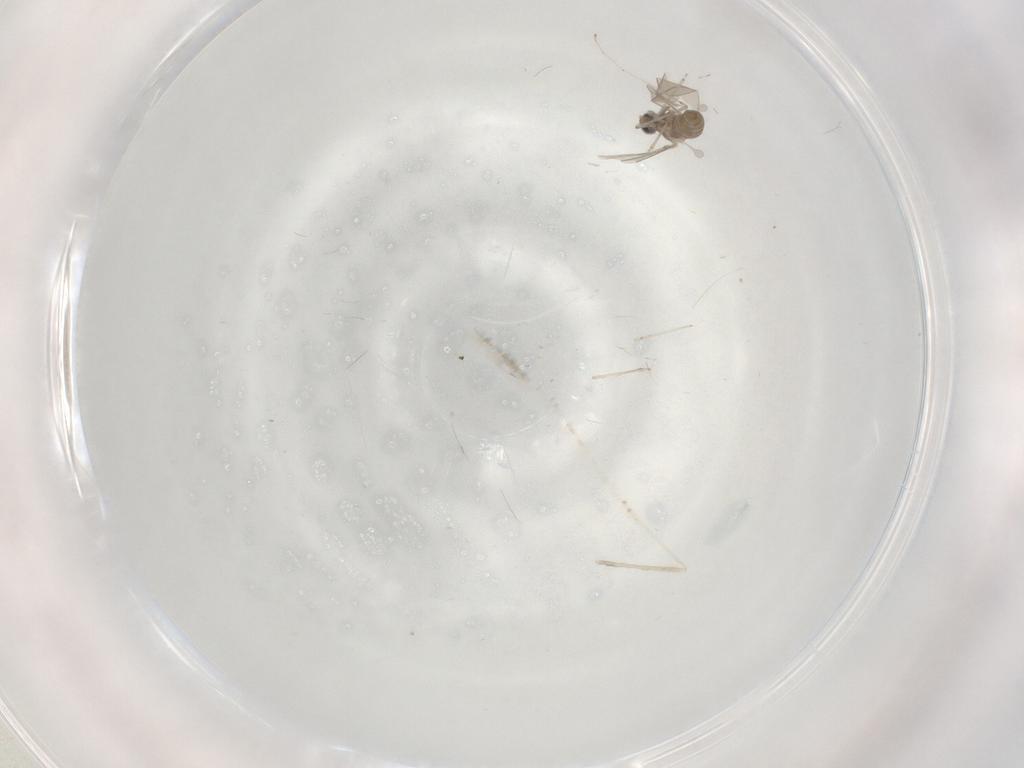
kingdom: Animalia
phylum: Arthropoda
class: Insecta
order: Diptera
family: Cecidomyiidae
